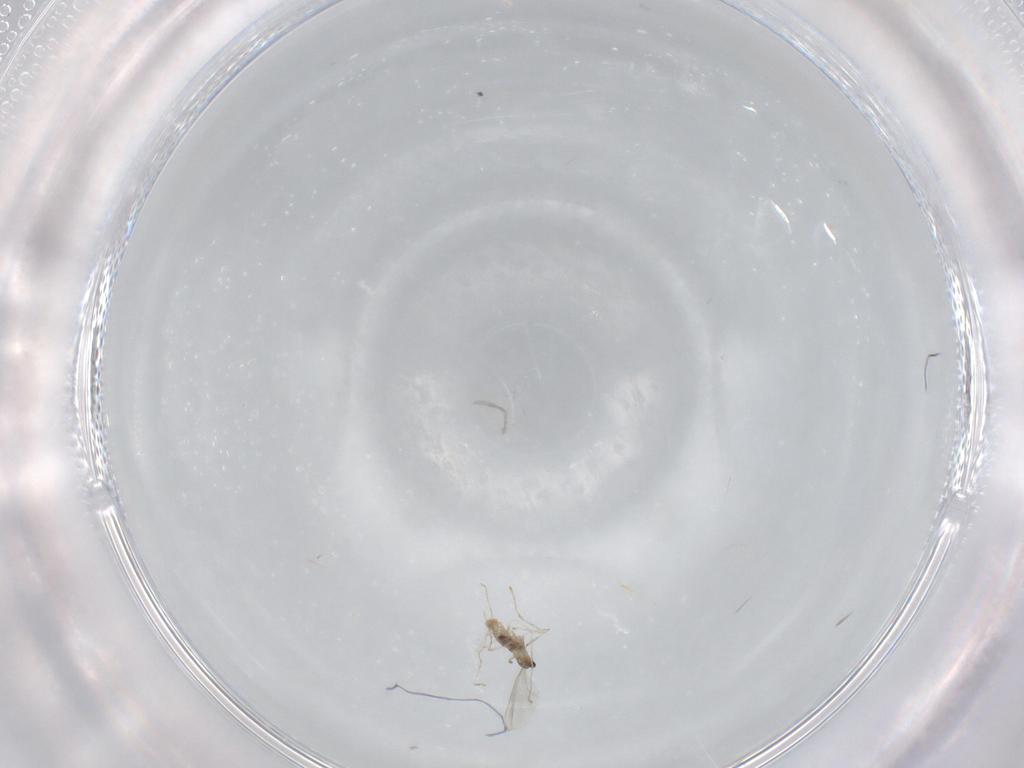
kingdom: Animalia
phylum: Arthropoda
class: Insecta
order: Diptera
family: Cecidomyiidae
